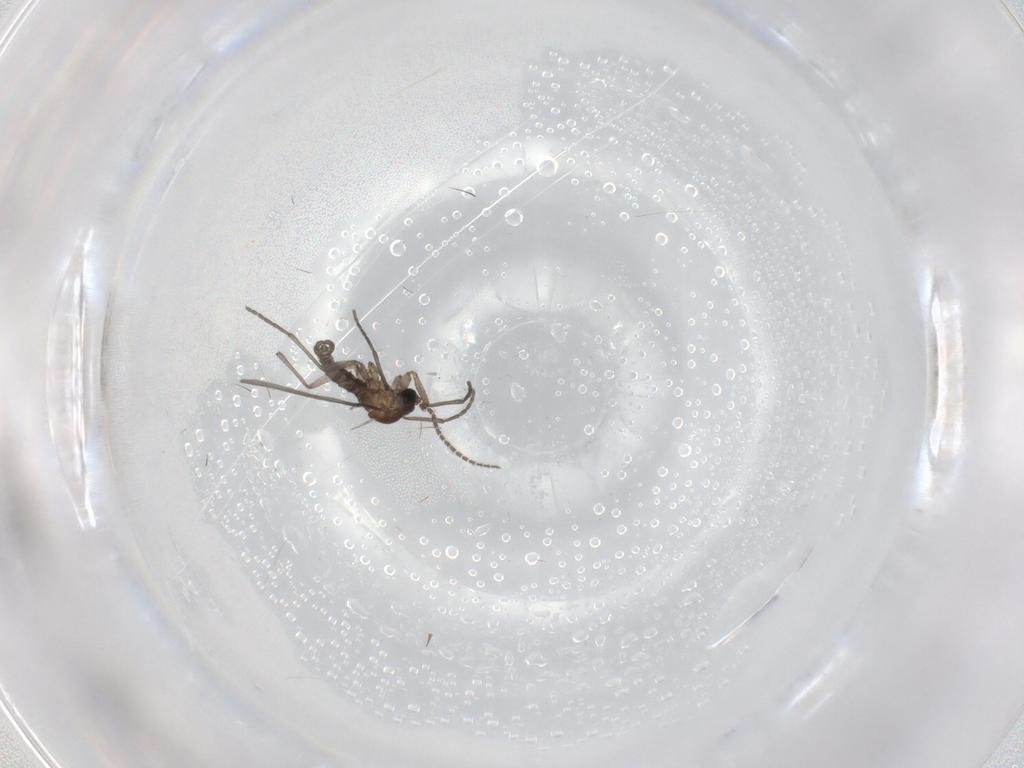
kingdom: Animalia
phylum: Arthropoda
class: Insecta
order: Diptera
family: Sciaridae
